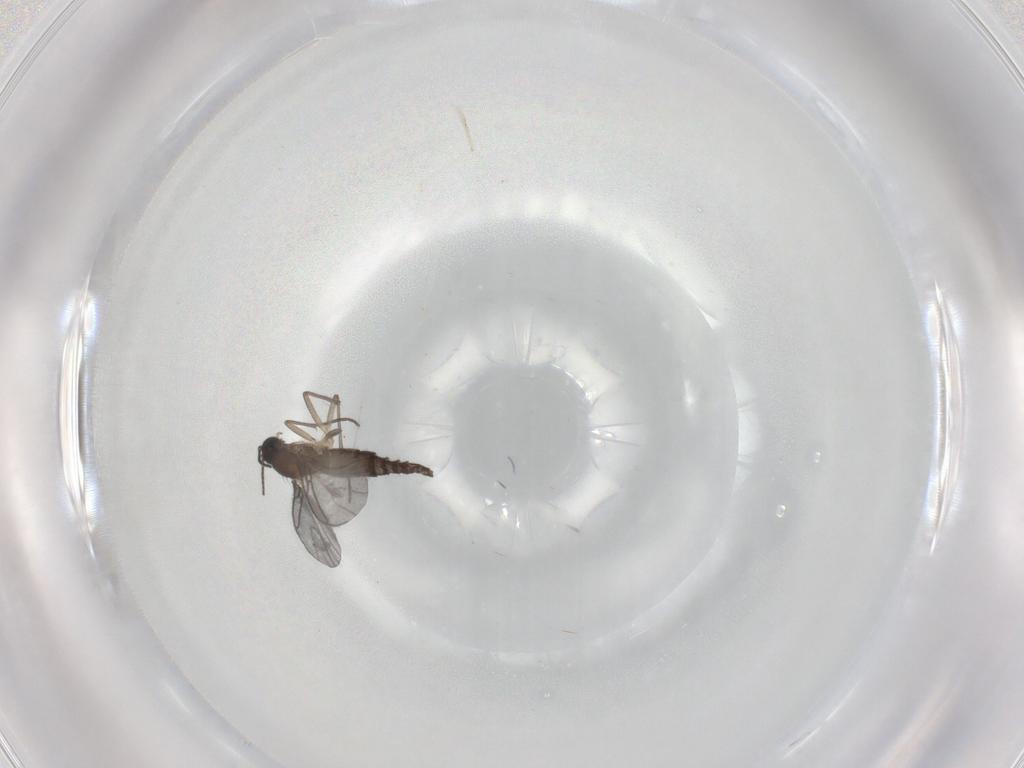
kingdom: Animalia
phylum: Arthropoda
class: Insecta
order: Diptera
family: Sciaridae
